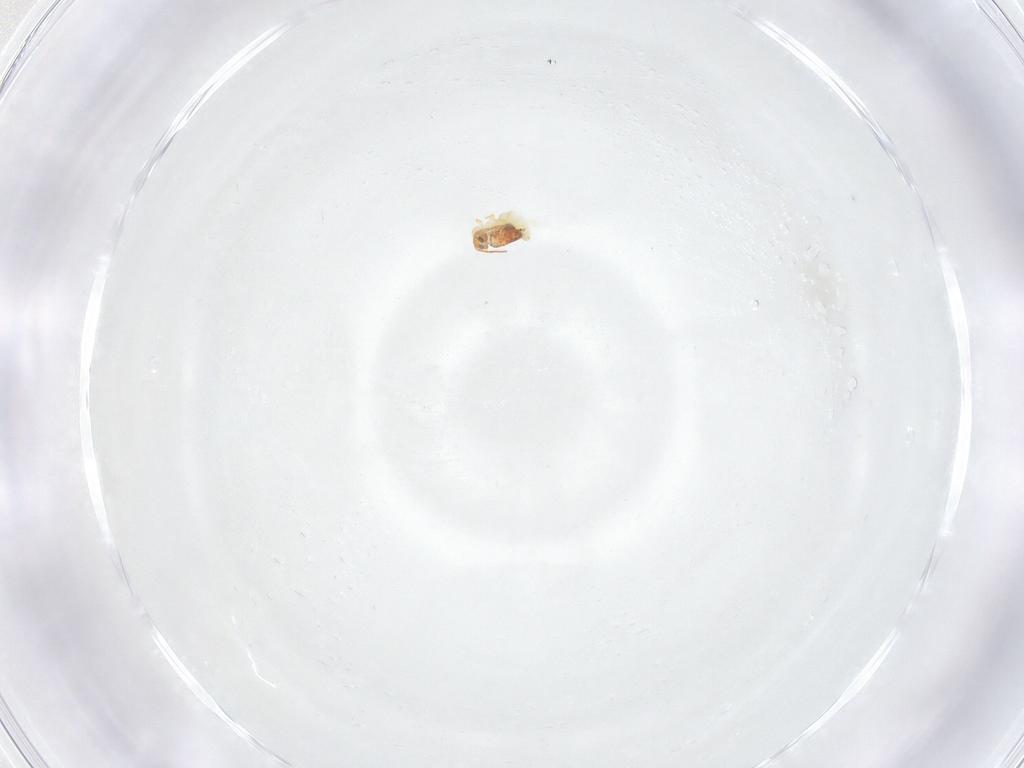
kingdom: Animalia
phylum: Arthropoda
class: Collembola
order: Symphypleona
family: Bourletiellidae
